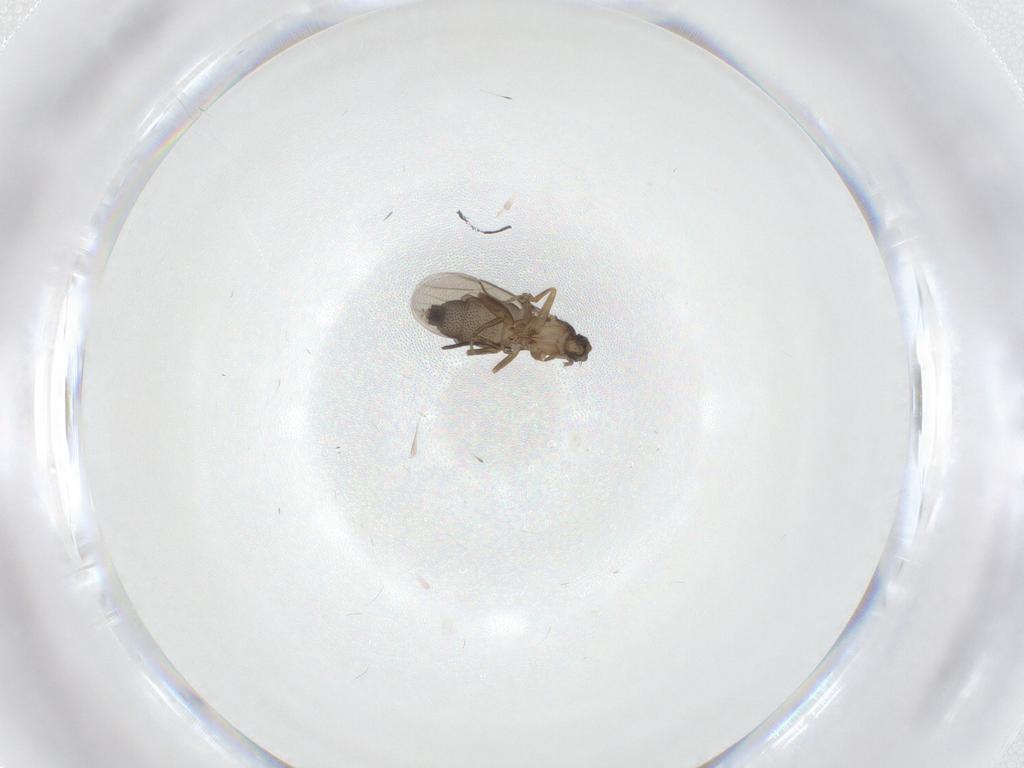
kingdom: Animalia
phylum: Arthropoda
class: Insecta
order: Diptera
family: Phoridae
